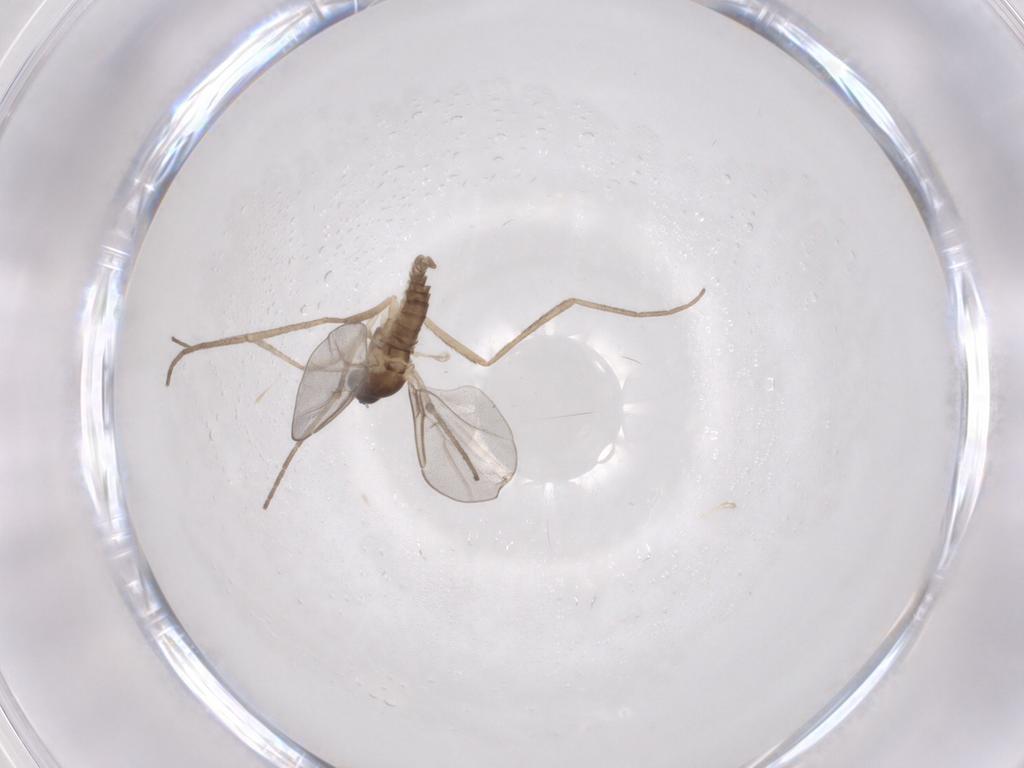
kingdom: Animalia
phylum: Arthropoda
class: Insecta
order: Diptera
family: Cecidomyiidae
